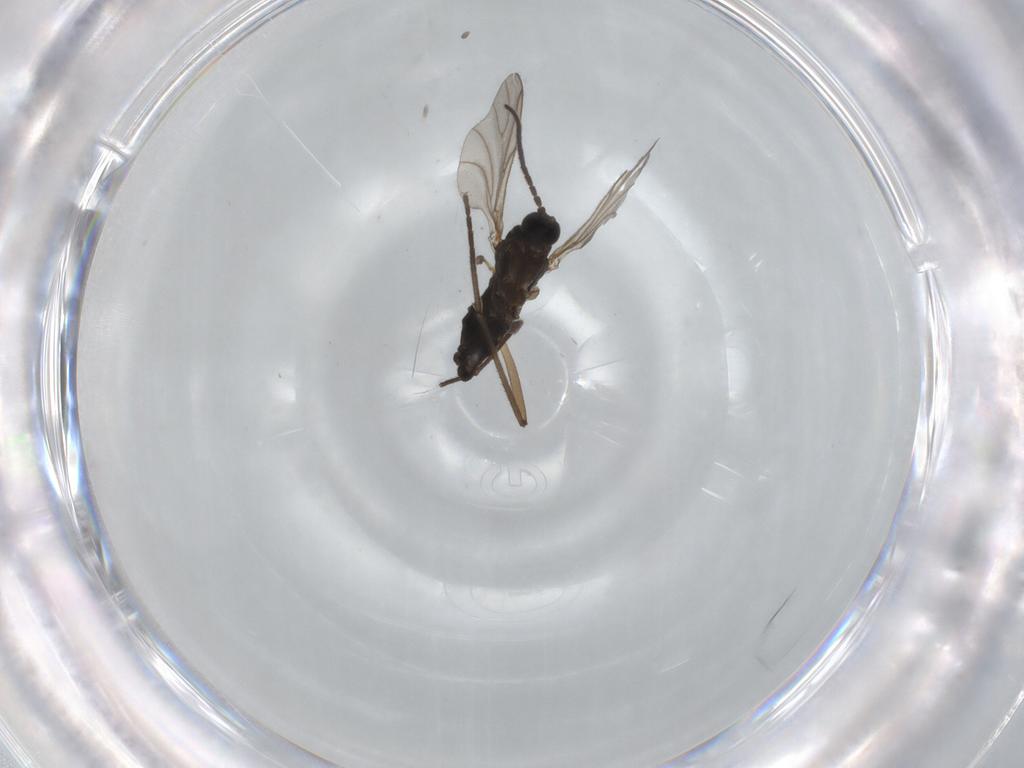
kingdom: Animalia
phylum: Arthropoda
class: Insecta
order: Diptera
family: Sciaridae
